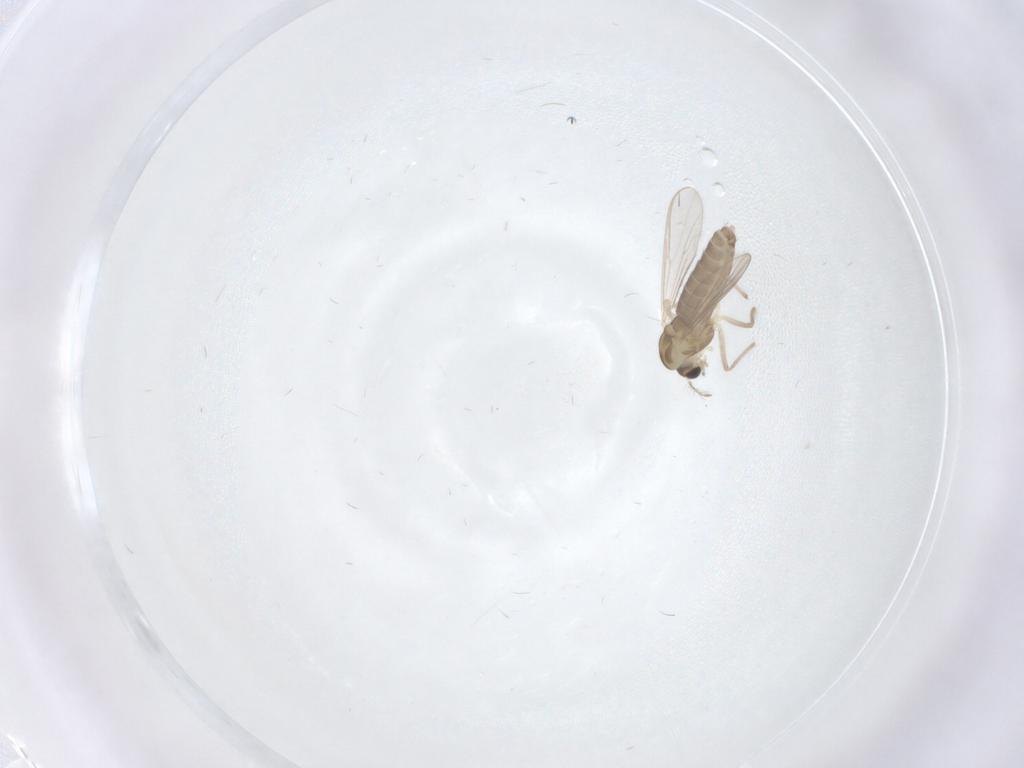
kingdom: Animalia
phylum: Arthropoda
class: Insecta
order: Diptera
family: Chironomidae
